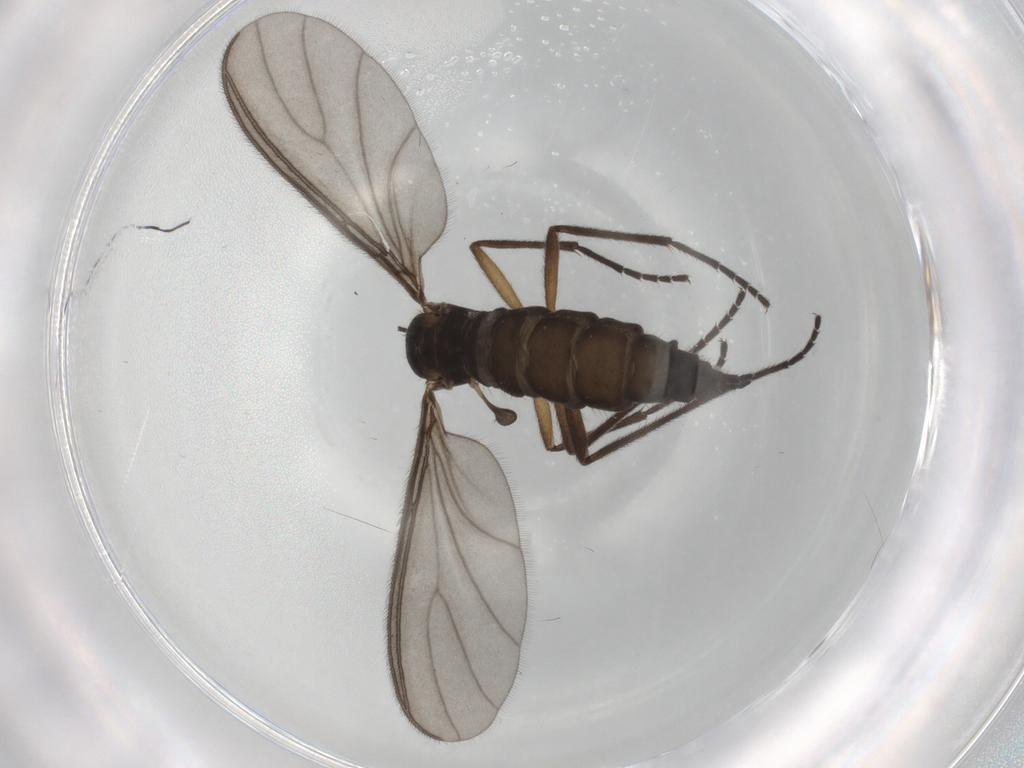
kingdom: Animalia
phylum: Arthropoda
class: Insecta
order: Diptera
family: Sciaridae
